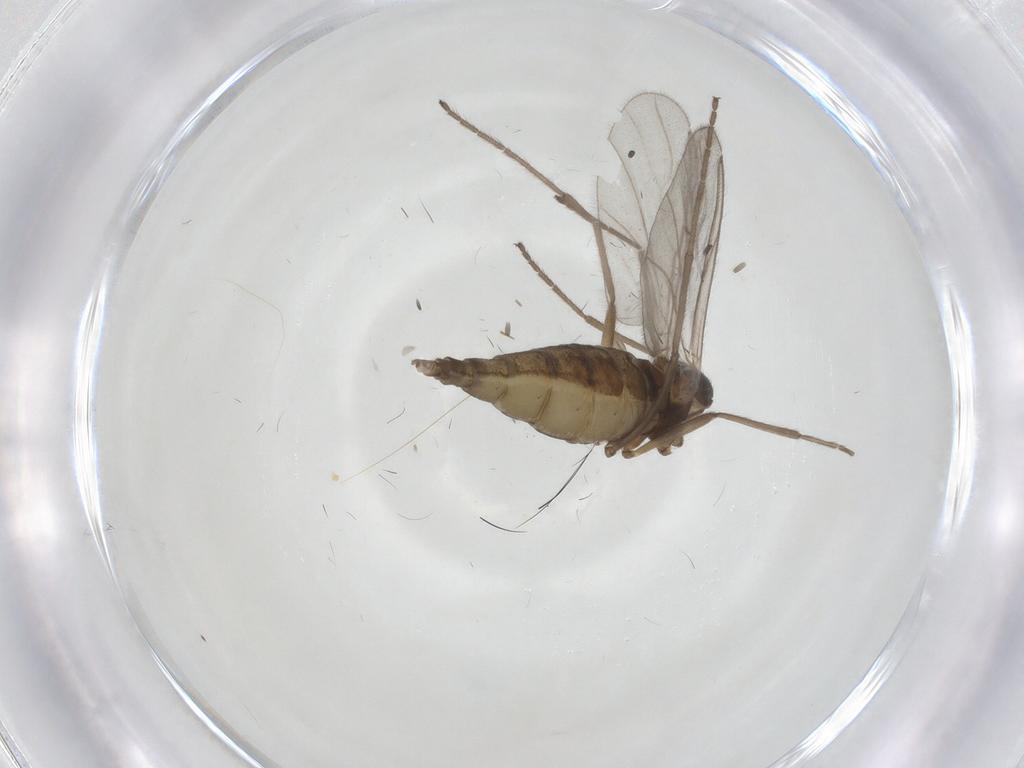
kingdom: Animalia
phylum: Arthropoda
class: Insecta
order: Diptera
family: Cecidomyiidae
